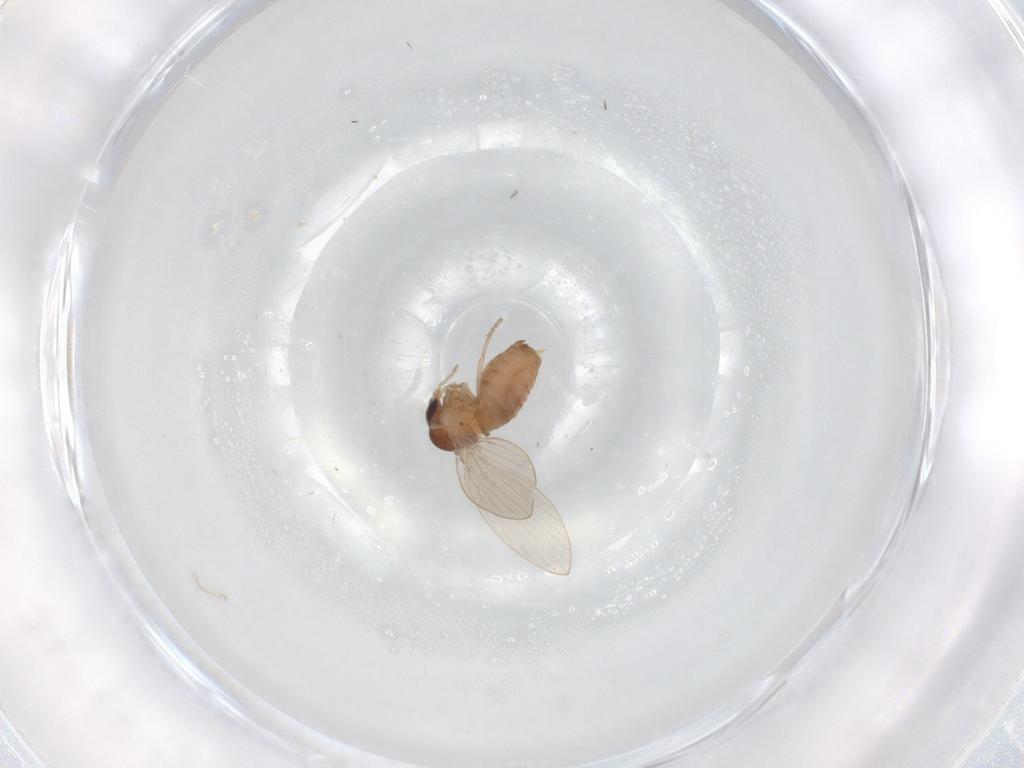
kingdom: Animalia
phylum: Arthropoda
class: Insecta
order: Diptera
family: Psychodidae
